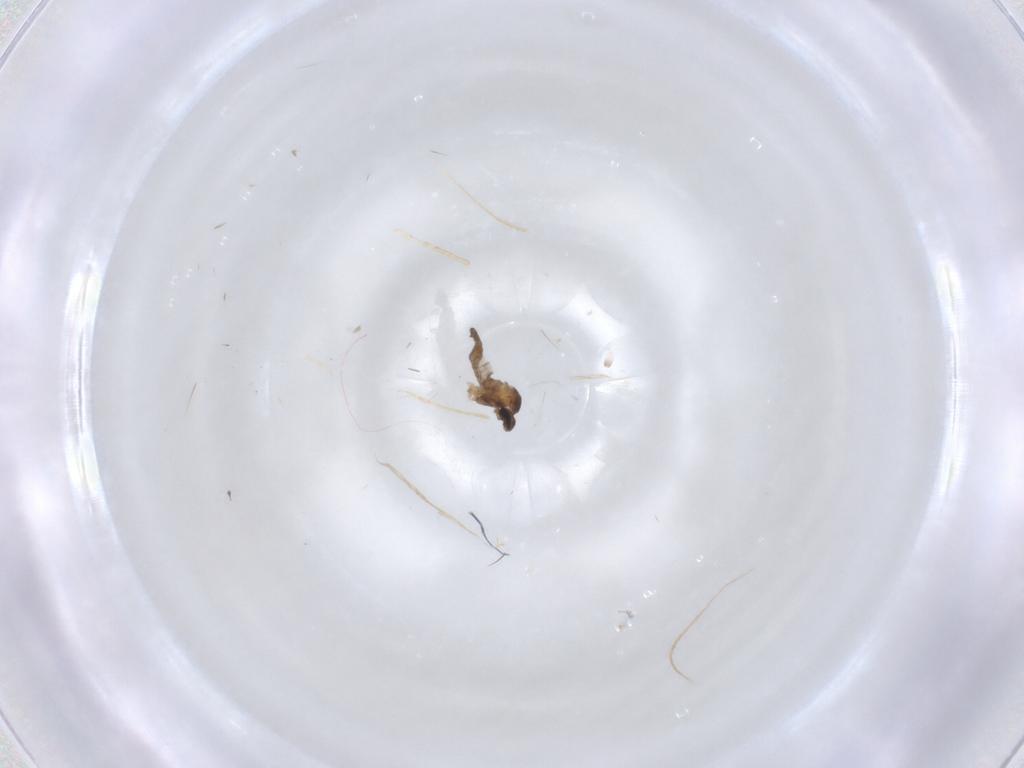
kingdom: Animalia
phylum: Arthropoda
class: Insecta
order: Diptera
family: Cecidomyiidae
